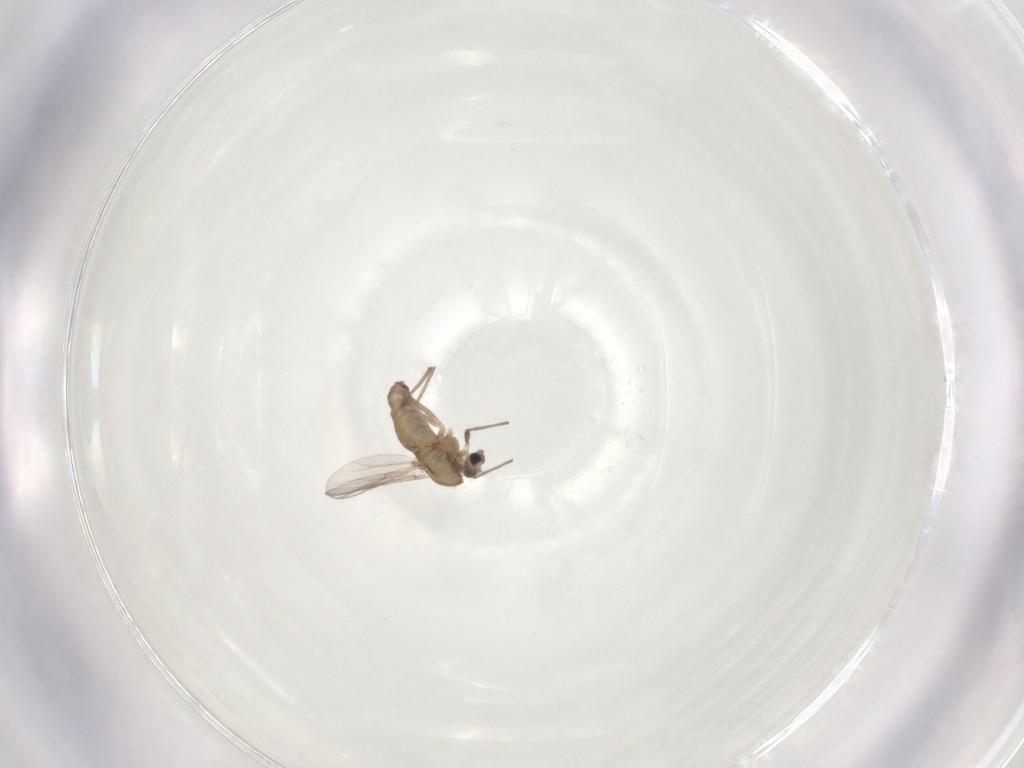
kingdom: Animalia
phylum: Arthropoda
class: Insecta
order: Diptera
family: Chironomidae
